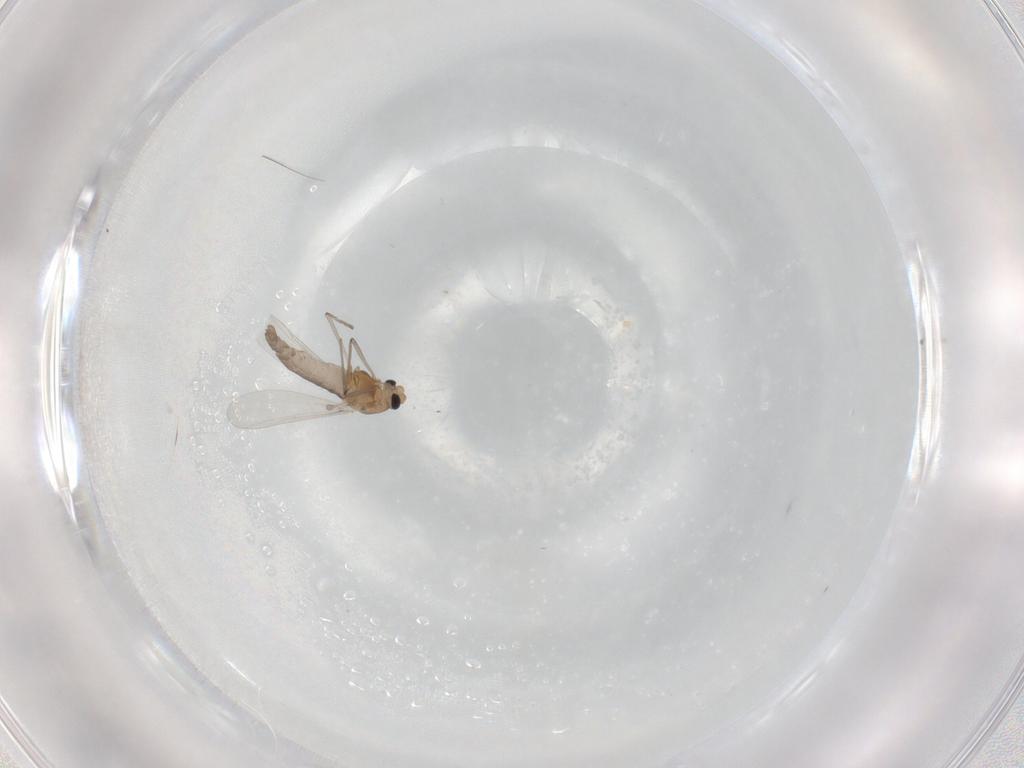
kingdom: Animalia
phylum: Arthropoda
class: Insecta
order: Diptera
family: Chironomidae
